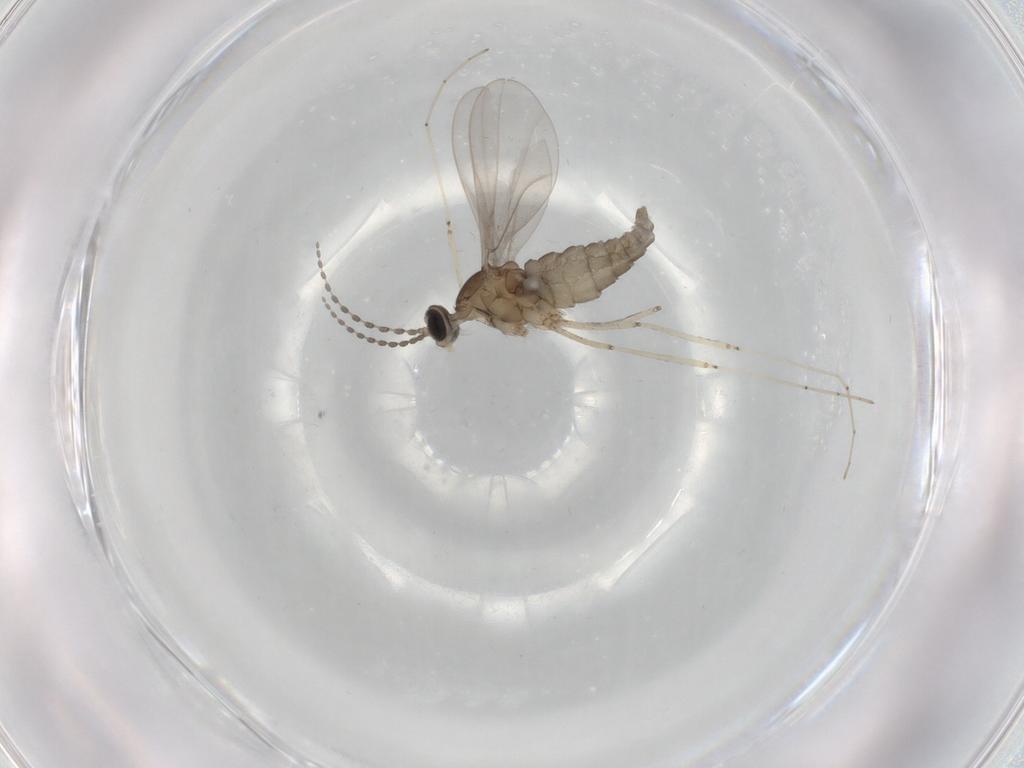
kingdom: Animalia
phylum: Arthropoda
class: Insecta
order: Diptera
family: Cecidomyiidae
